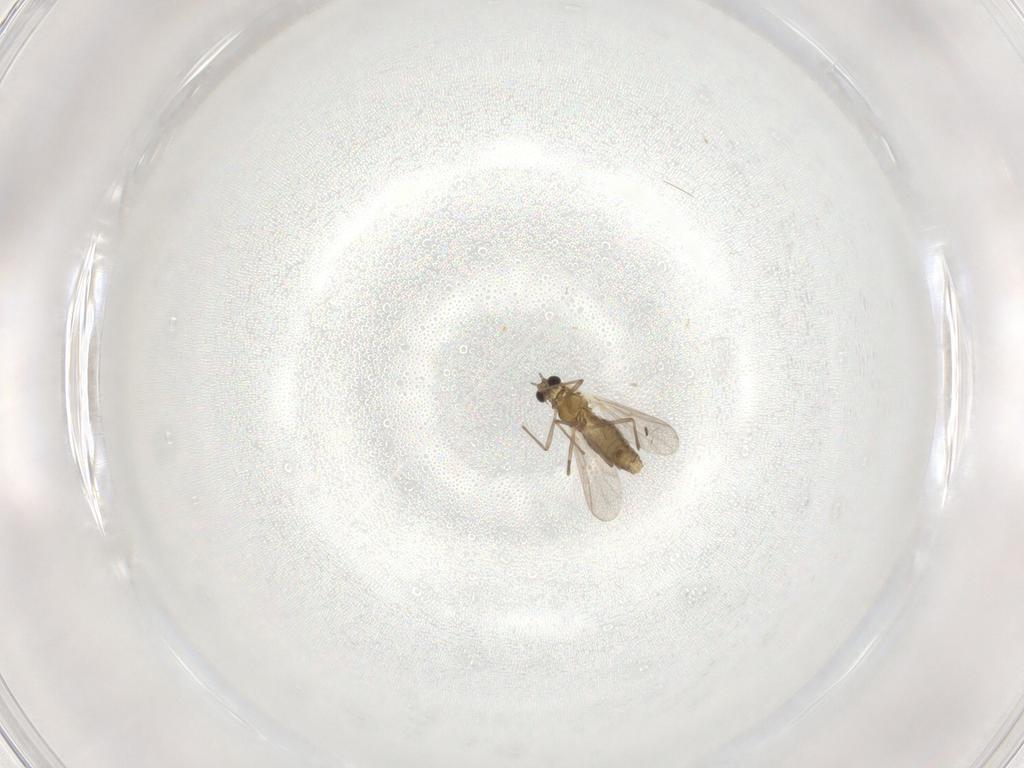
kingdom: Animalia
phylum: Arthropoda
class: Insecta
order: Diptera
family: Chironomidae
